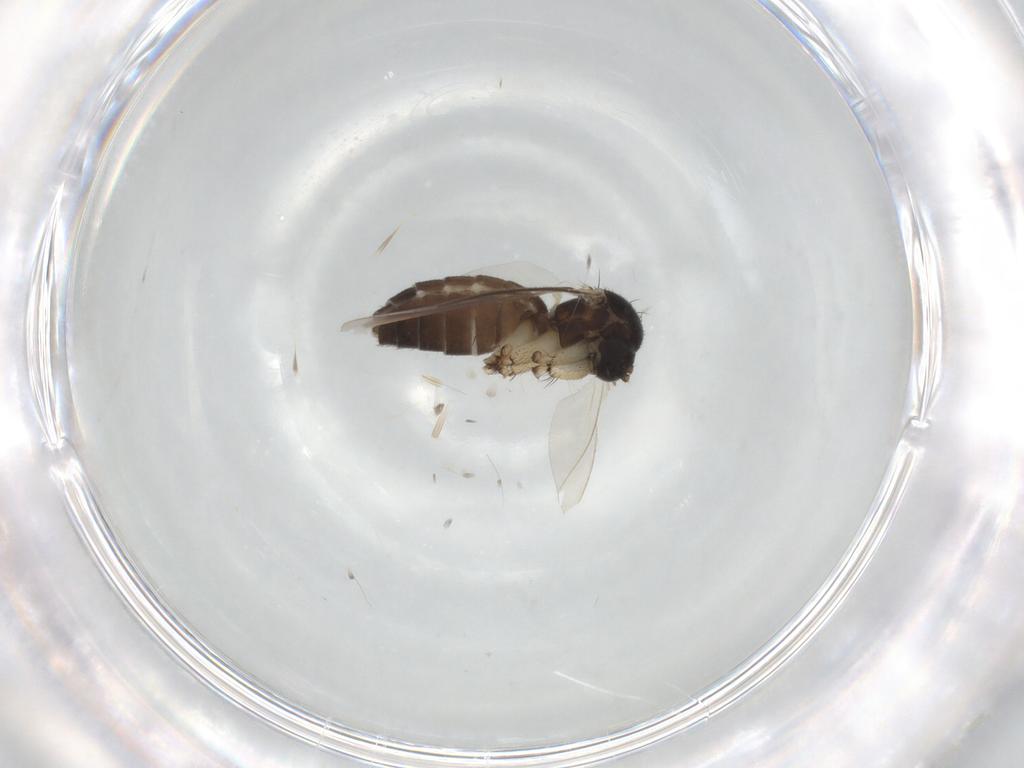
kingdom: Animalia
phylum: Arthropoda
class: Insecta
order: Diptera
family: Mycetophilidae
